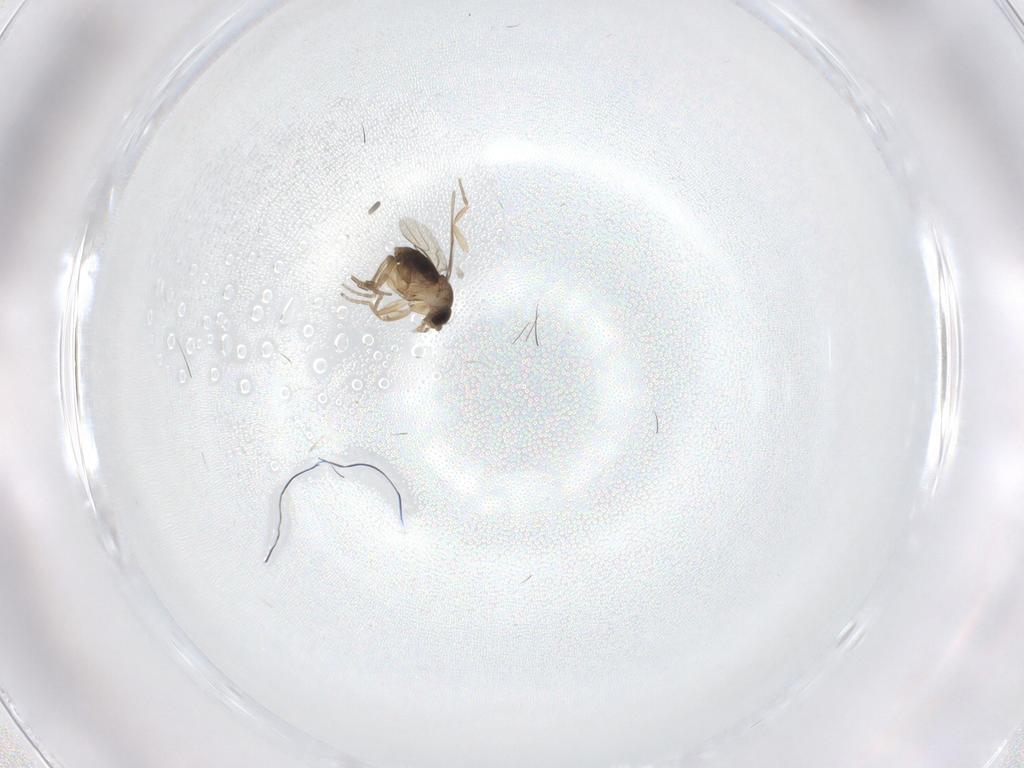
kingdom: Animalia
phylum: Arthropoda
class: Insecta
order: Diptera
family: Phoridae
